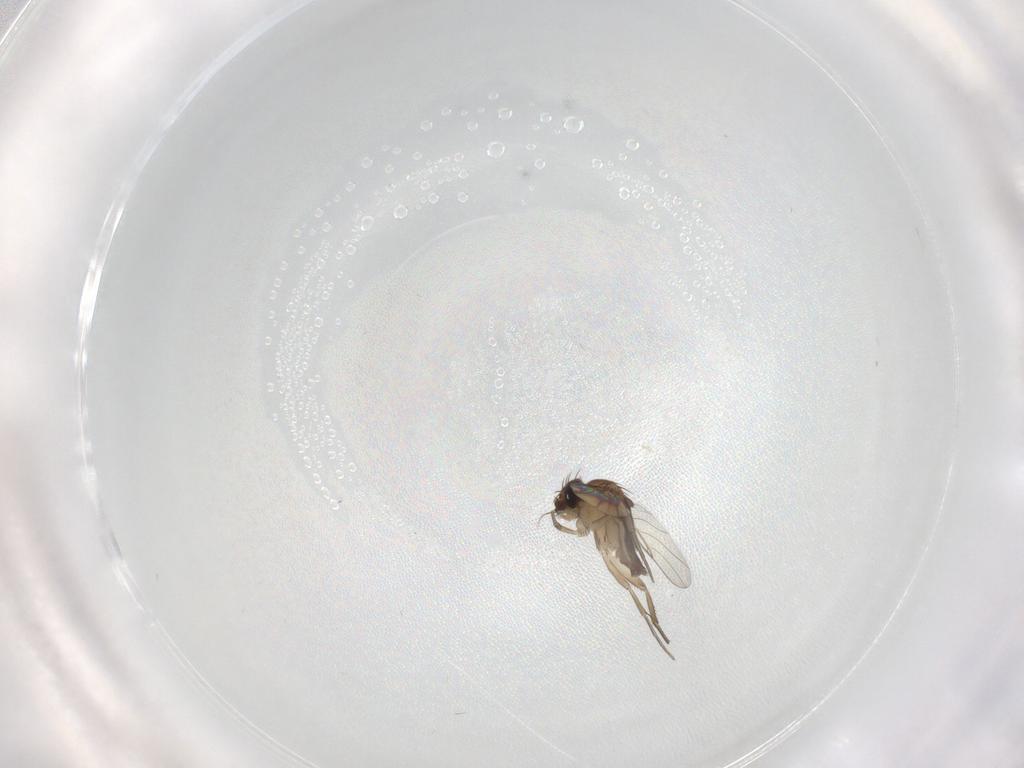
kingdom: Animalia
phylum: Arthropoda
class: Insecta
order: Diptera
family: Phoridae
